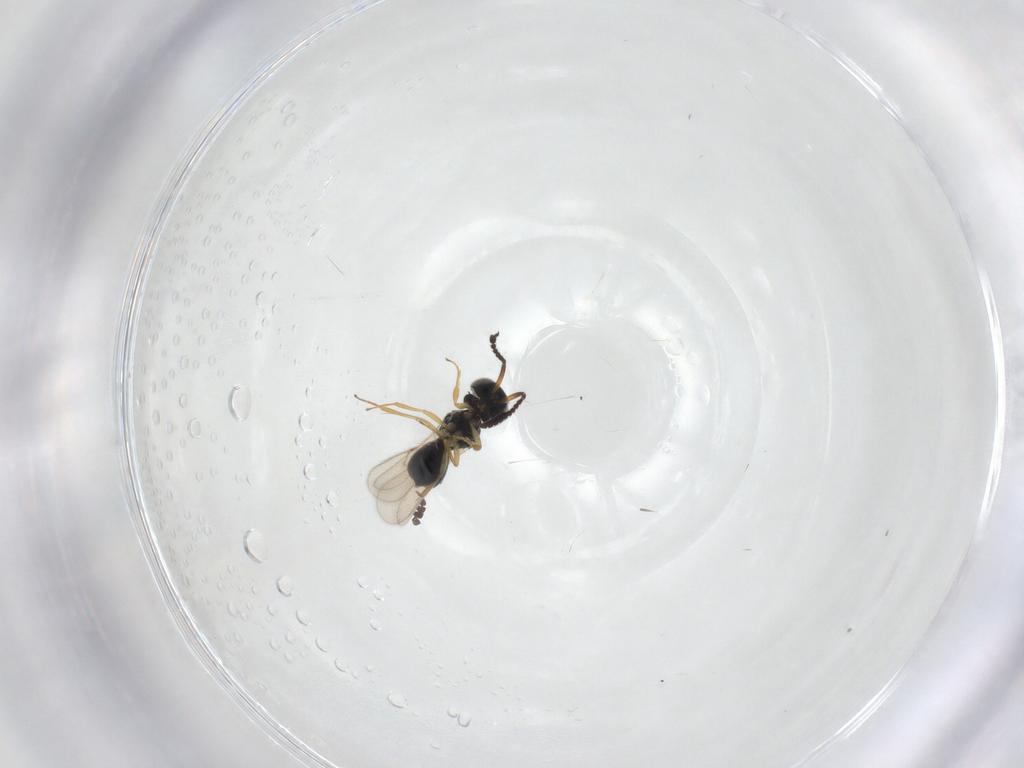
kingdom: Animalia
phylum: Arthropoda
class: Insecta
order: Hymenoptera
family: Scelionidae
